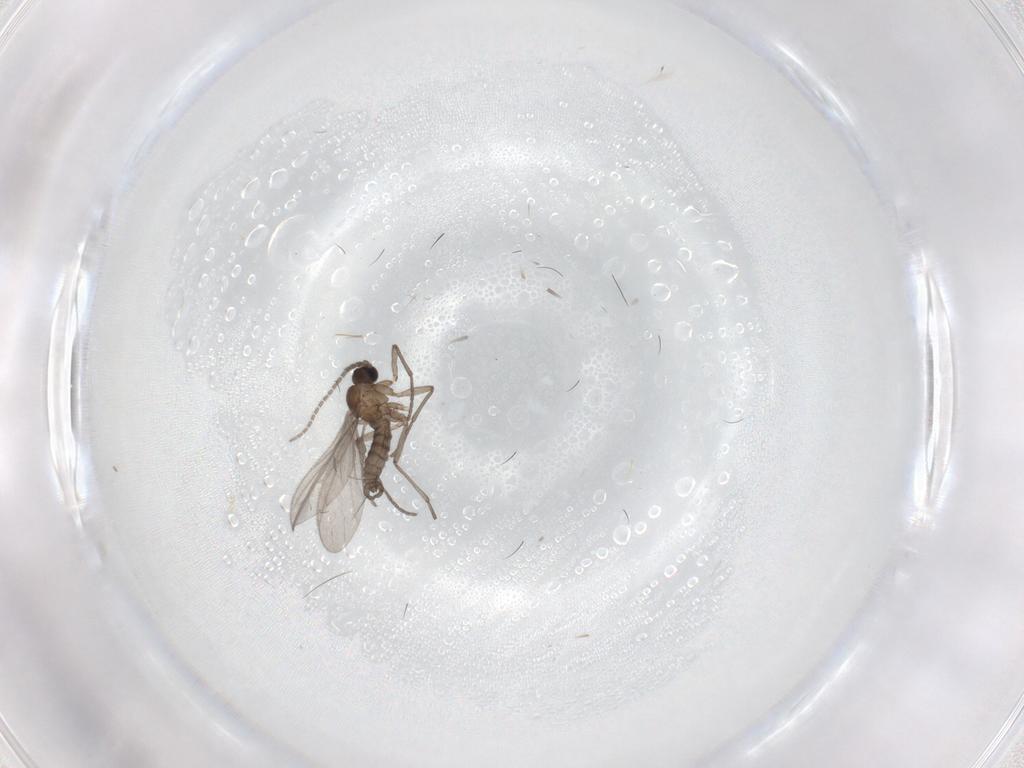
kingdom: Animalia
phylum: Arthropoda
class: Insecta
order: Diptera
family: Sciaridae
